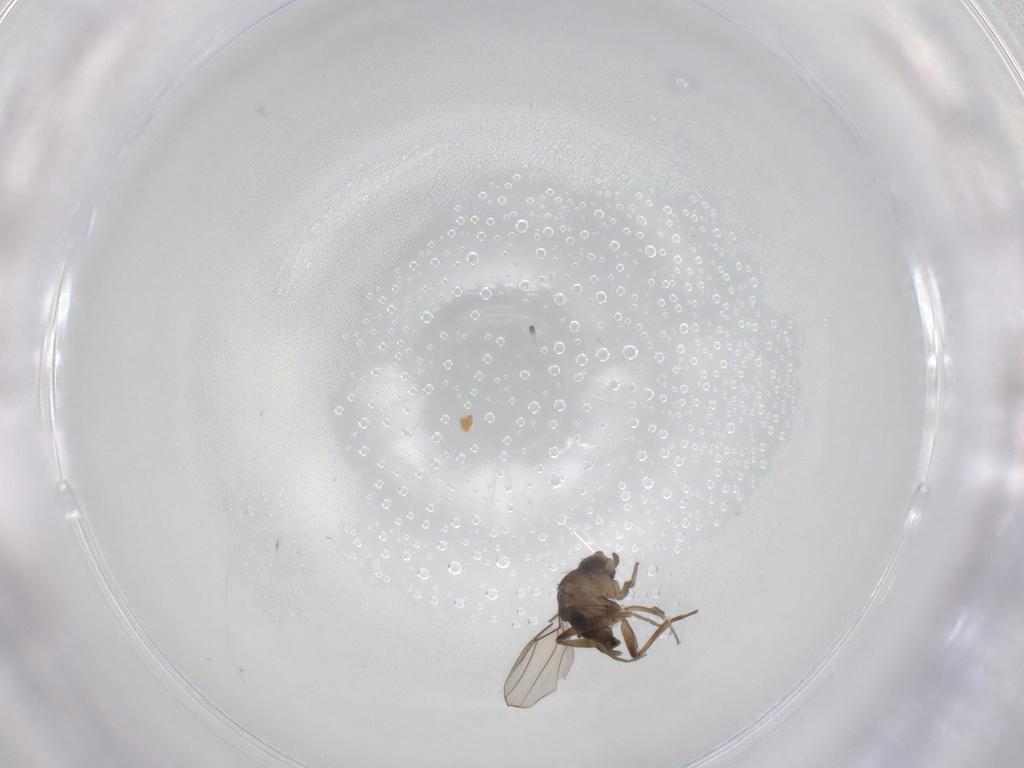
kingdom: Animalia
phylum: Arthropoda
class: Insecta
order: Diptera
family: Phoridae
